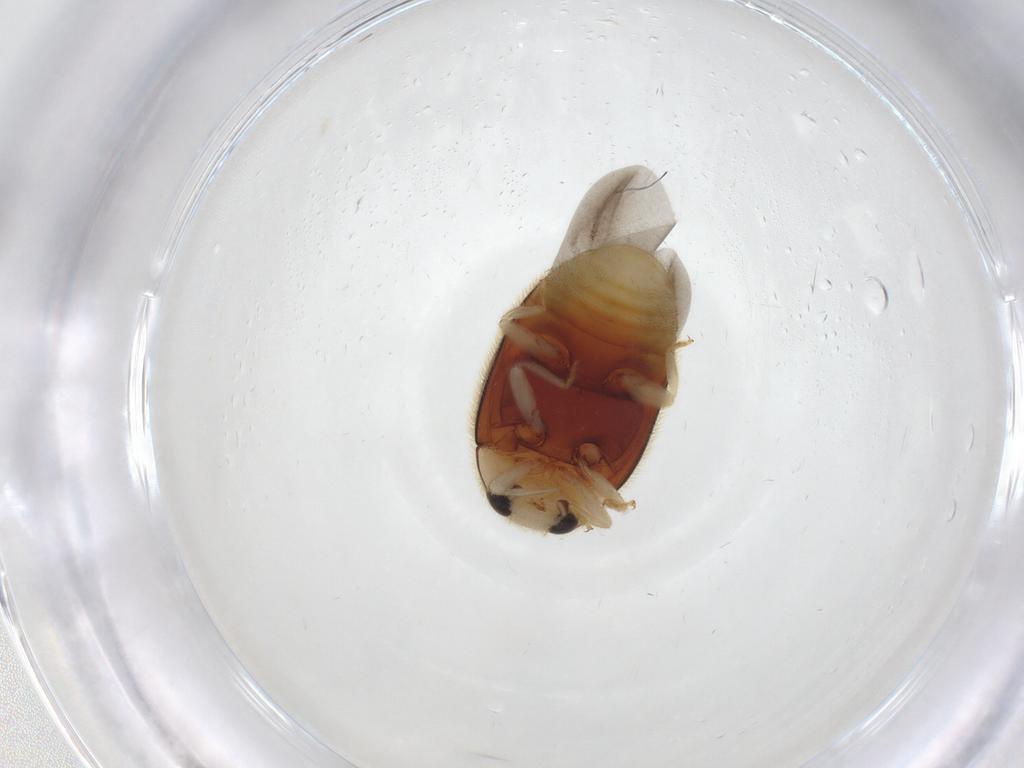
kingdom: Animalia
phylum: Arthropoda
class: Insecta
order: Coleoptera
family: Coccinellidae
